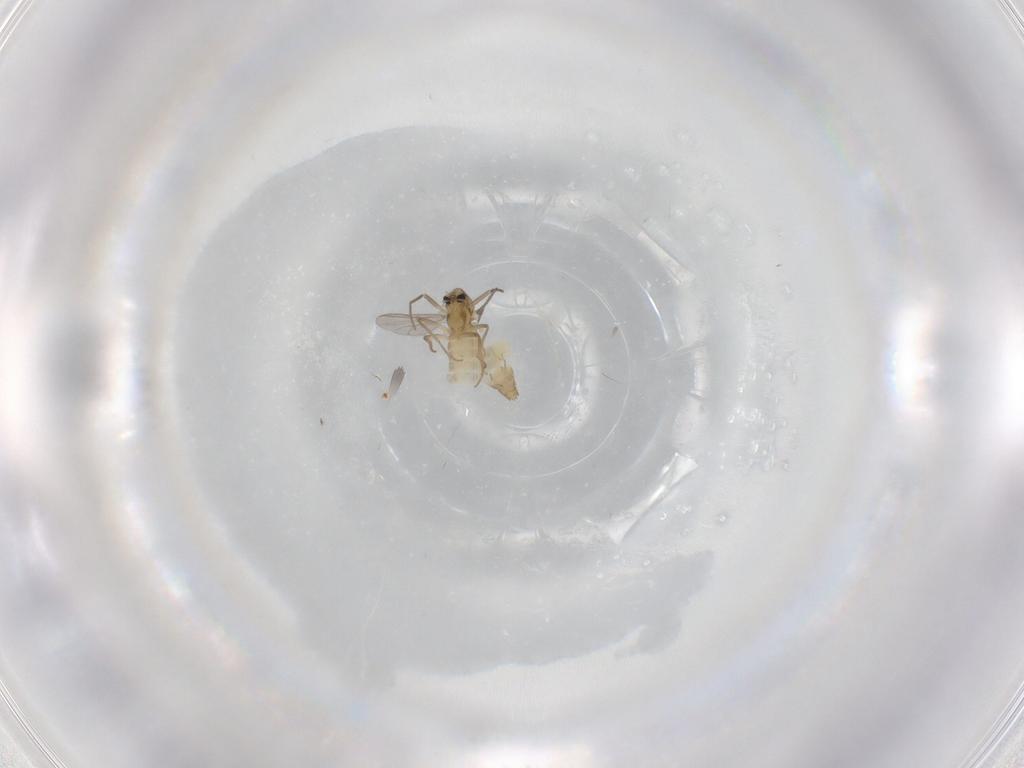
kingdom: Animalia
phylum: Arthropoda
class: Insecta
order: Diptera
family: Chironomidae
